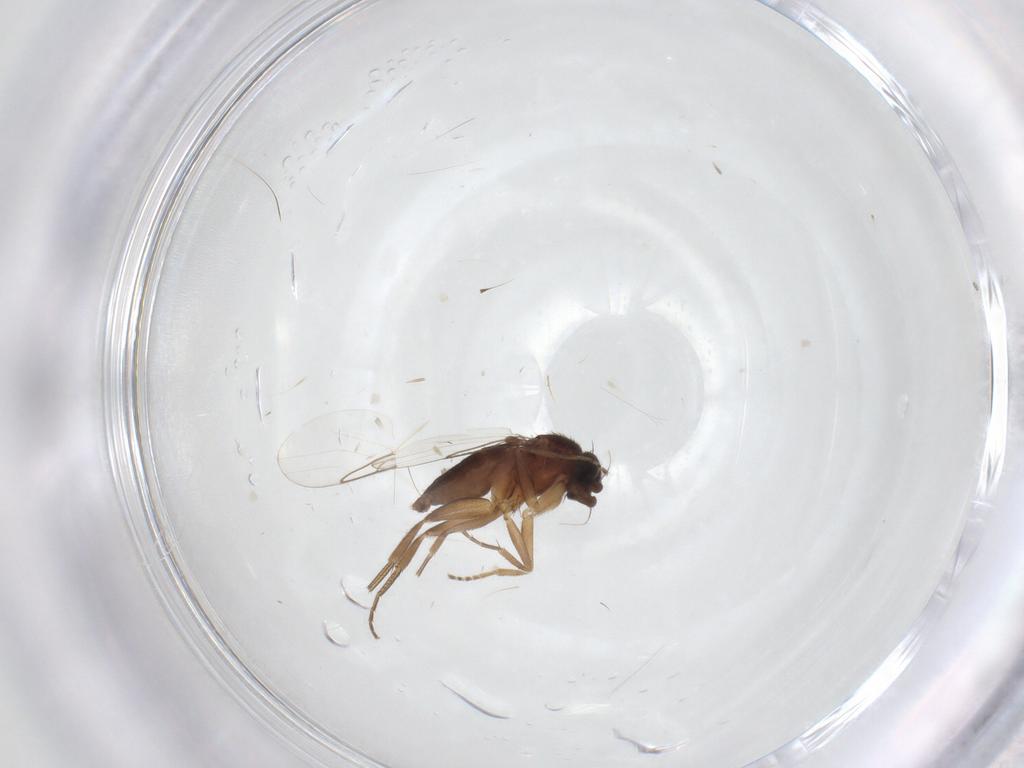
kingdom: Animalia
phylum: Arthropoda
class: Insecta
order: Diptera
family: Phoridae
